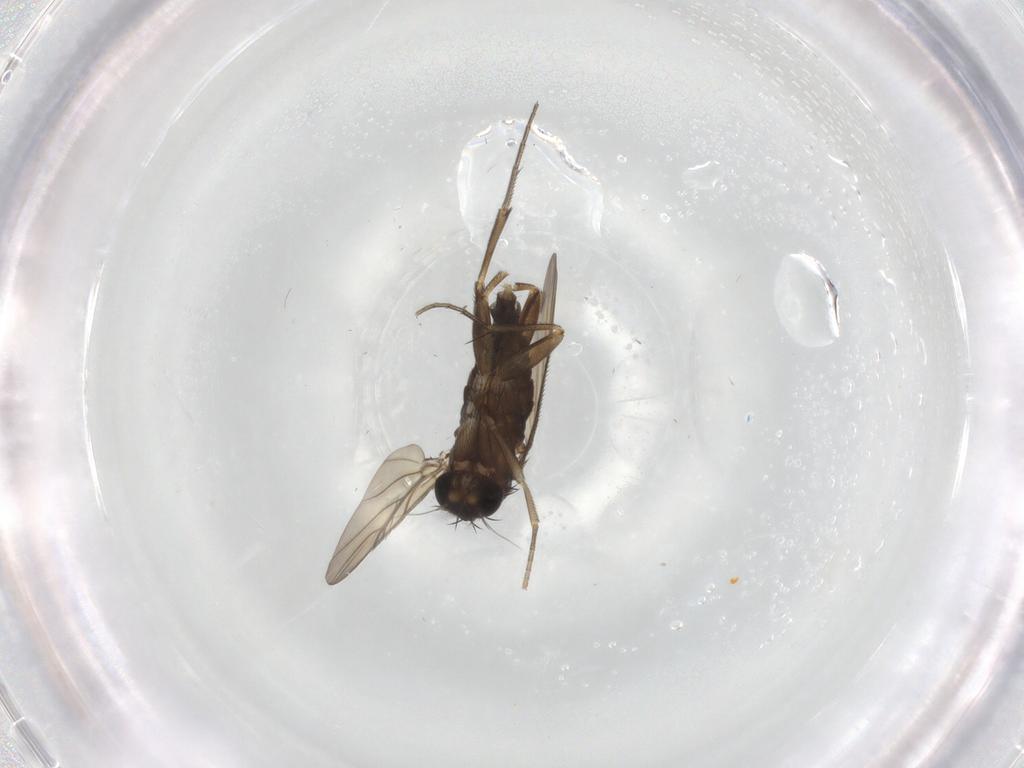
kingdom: Animalia
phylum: Arthropoda
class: Insecta
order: Diptera
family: Phoridae
